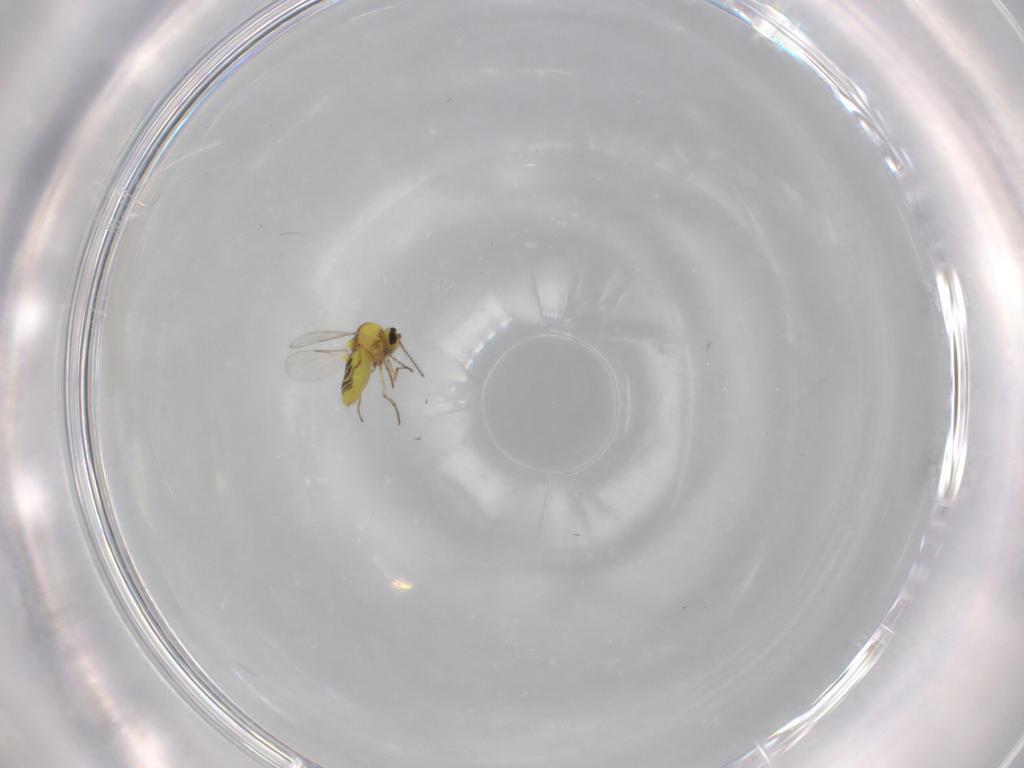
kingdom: Animalia
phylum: Arthropoda
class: Insecta
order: Diptera
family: Ceratopogonidae
